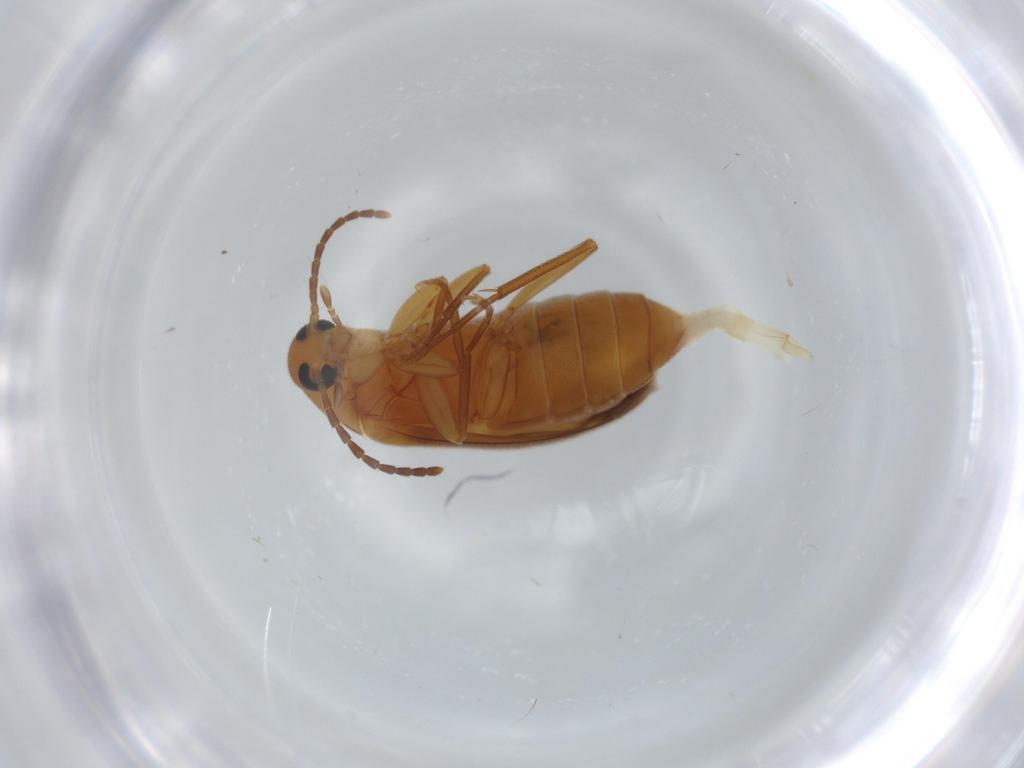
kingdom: Animalia
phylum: Arthropoda
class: Insecta
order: Coleoptera
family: Scraptiidae
